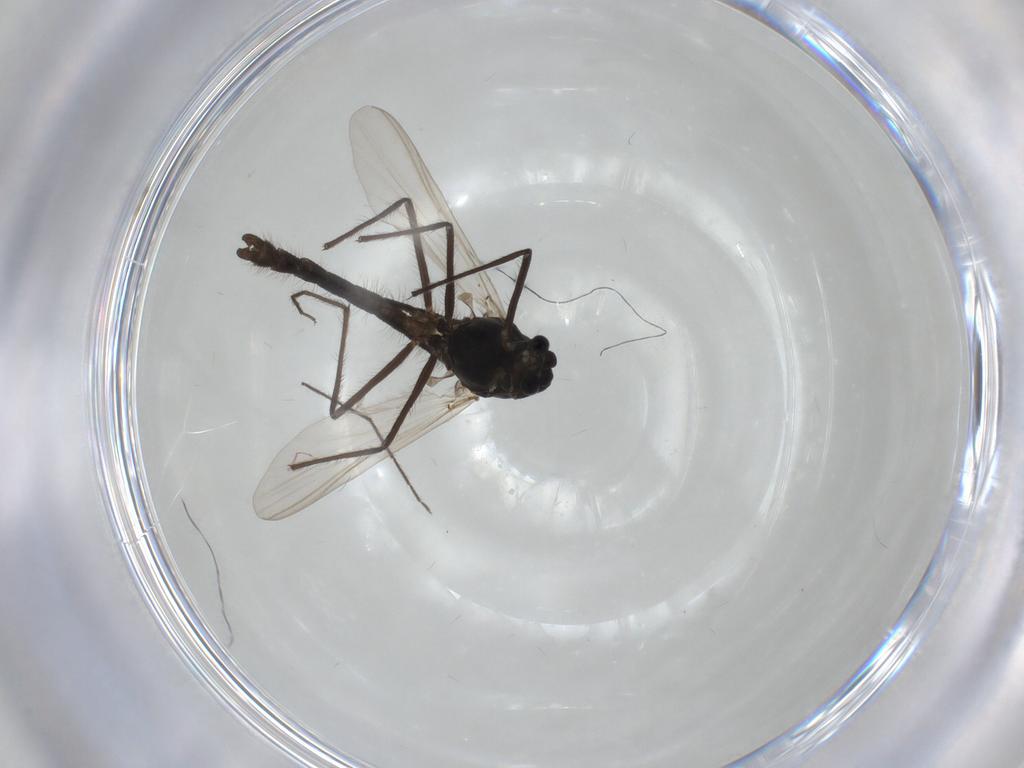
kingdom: Animalia
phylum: Arthropoda
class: Insecta
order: Diptera
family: Chironomidae
